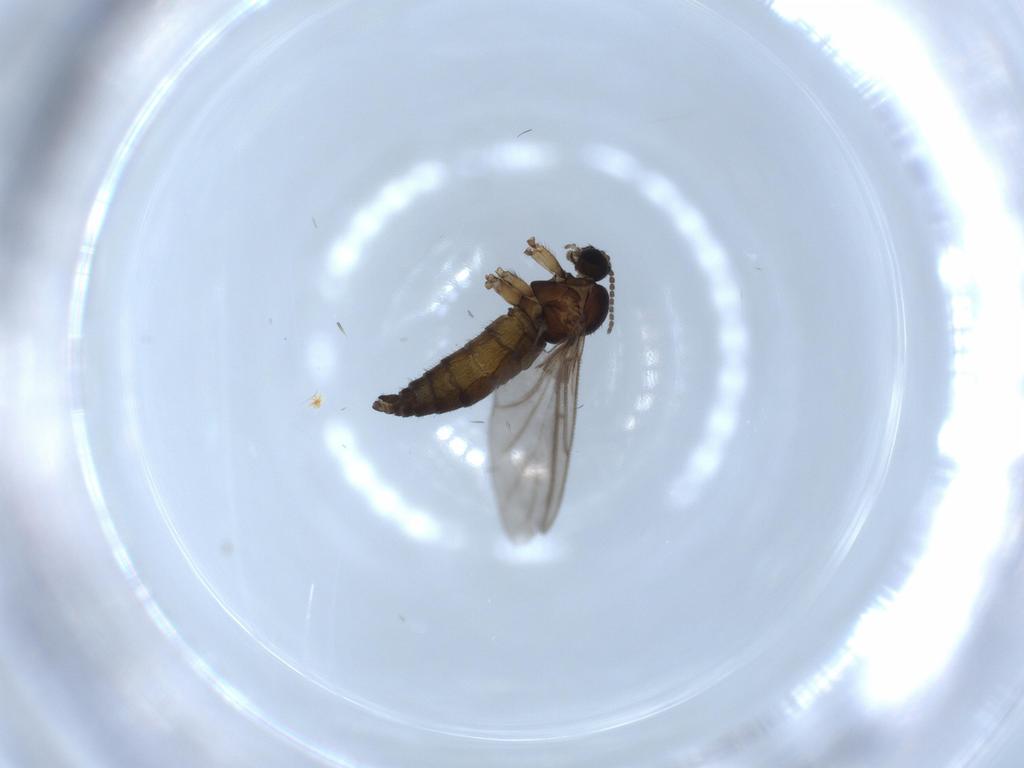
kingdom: Animalia
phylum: Arthropoda
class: Insecta
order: Diptera
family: Sciaridae
